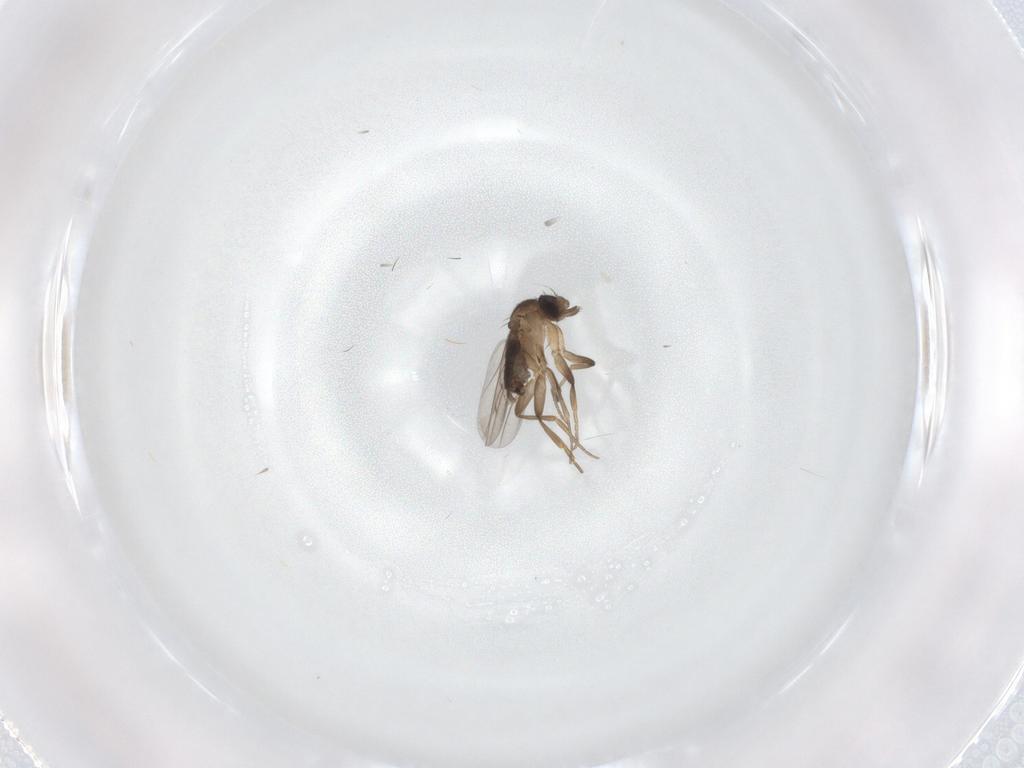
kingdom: Animalia
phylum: Arthropoda
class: Insecta
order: Diptera
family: Phoridae
